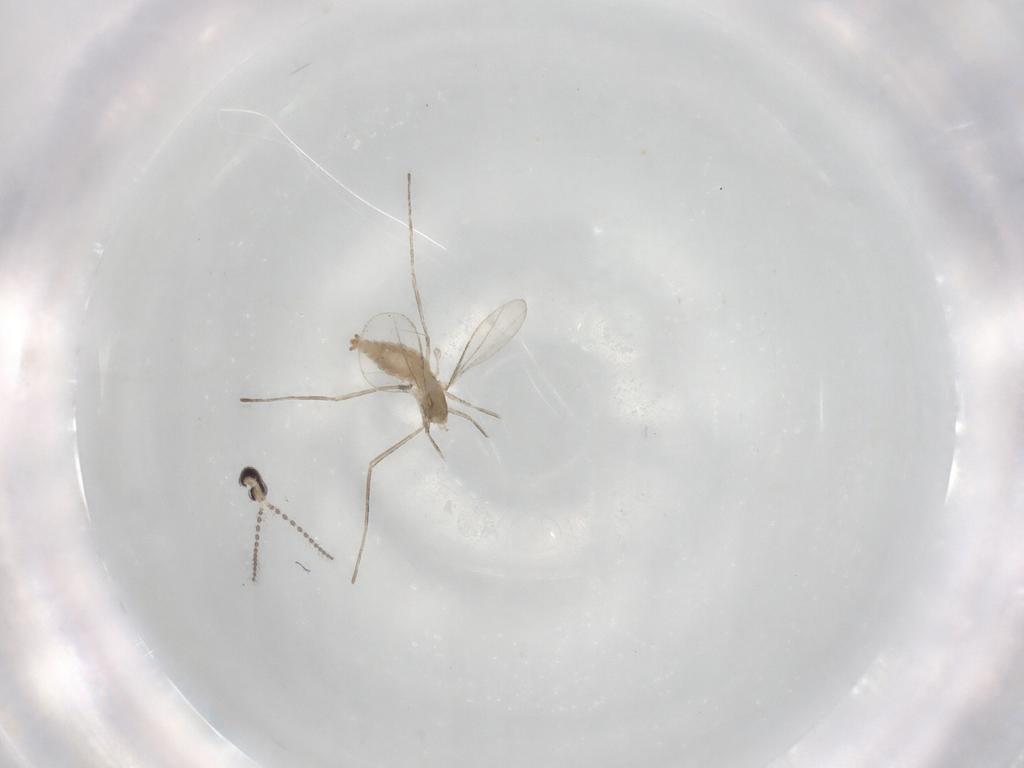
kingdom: Animalia
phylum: Arthropoda
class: Insecta
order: Diptera
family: Cecidomyiidae
